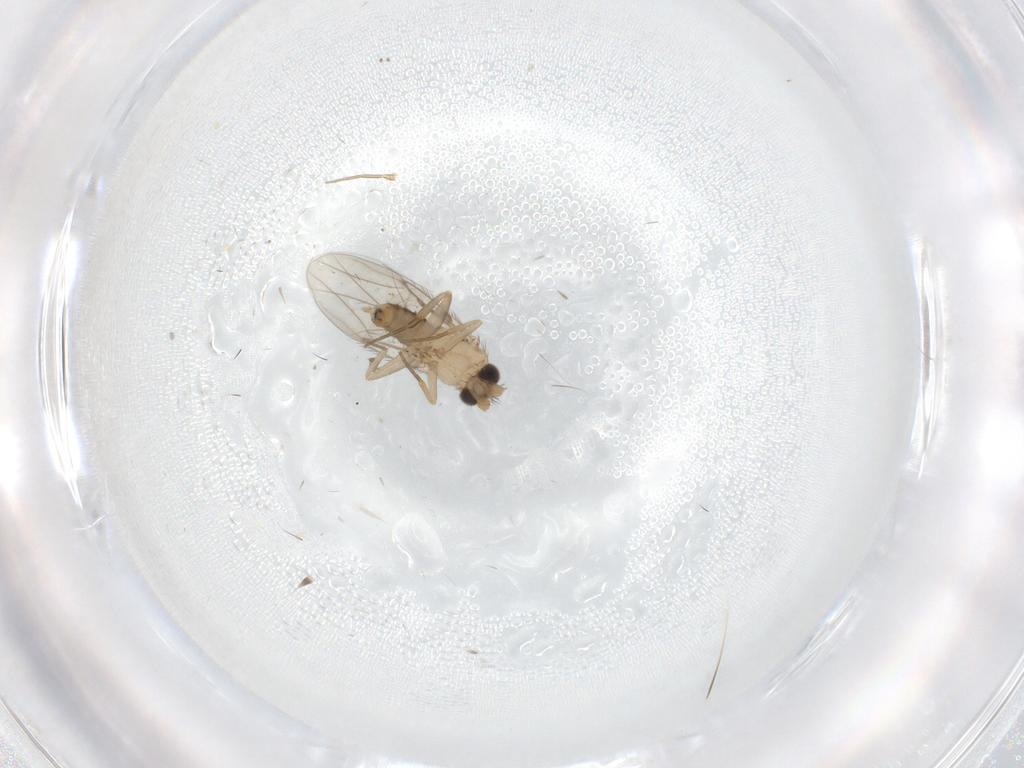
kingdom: Animalia
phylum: Arthropoda
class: Insecta
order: Diptera
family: Psychodidae
